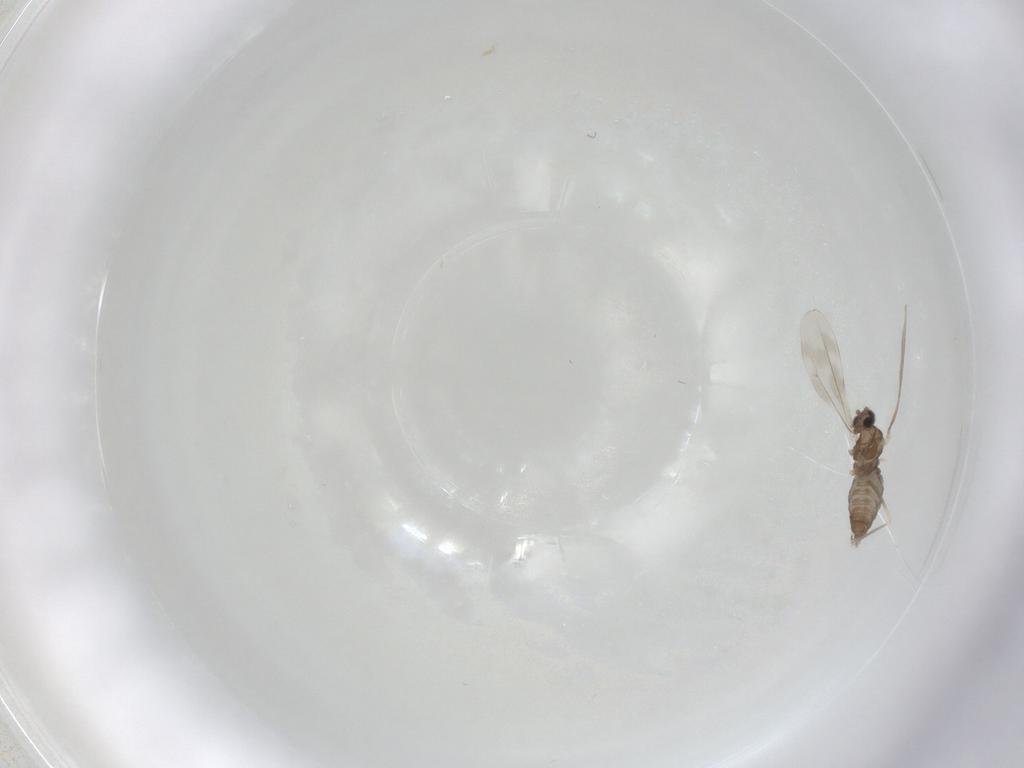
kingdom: Animalia
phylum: Arthropoda
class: Insecta
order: Diptera
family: Cecidomyiidae
